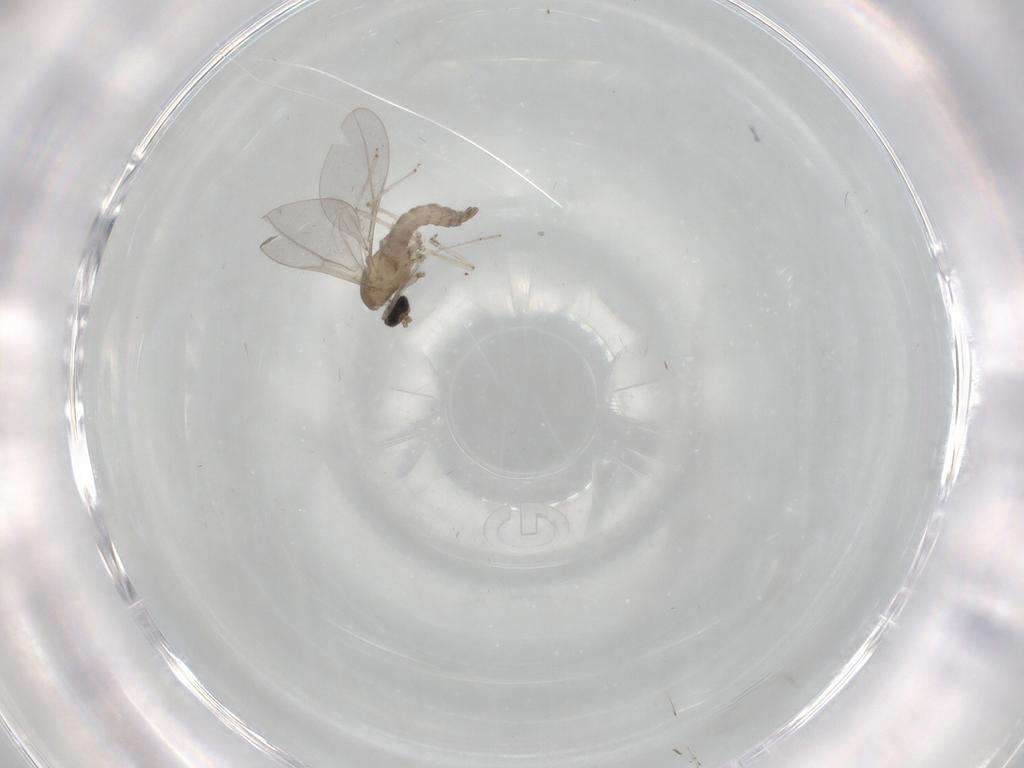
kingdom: Animalia
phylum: Arthropoda
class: Insecta
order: Diptera
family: Cecidomyiidae
